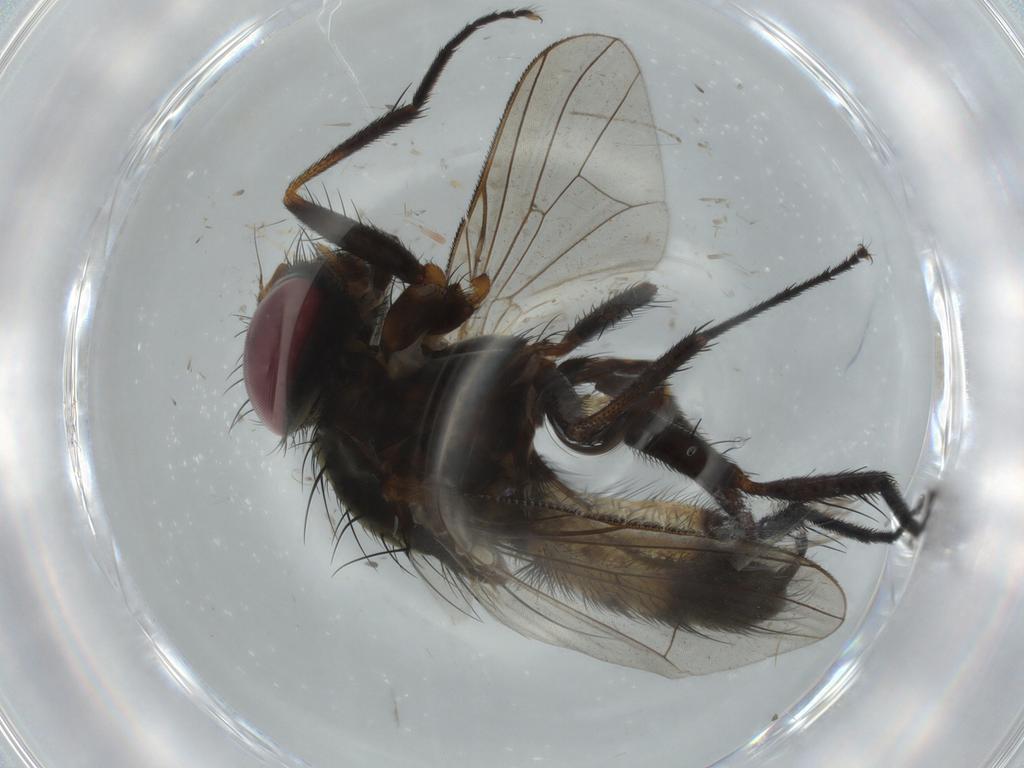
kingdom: Animalia
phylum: Arthropoda
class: Insecta
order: Diptera
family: Fannia
